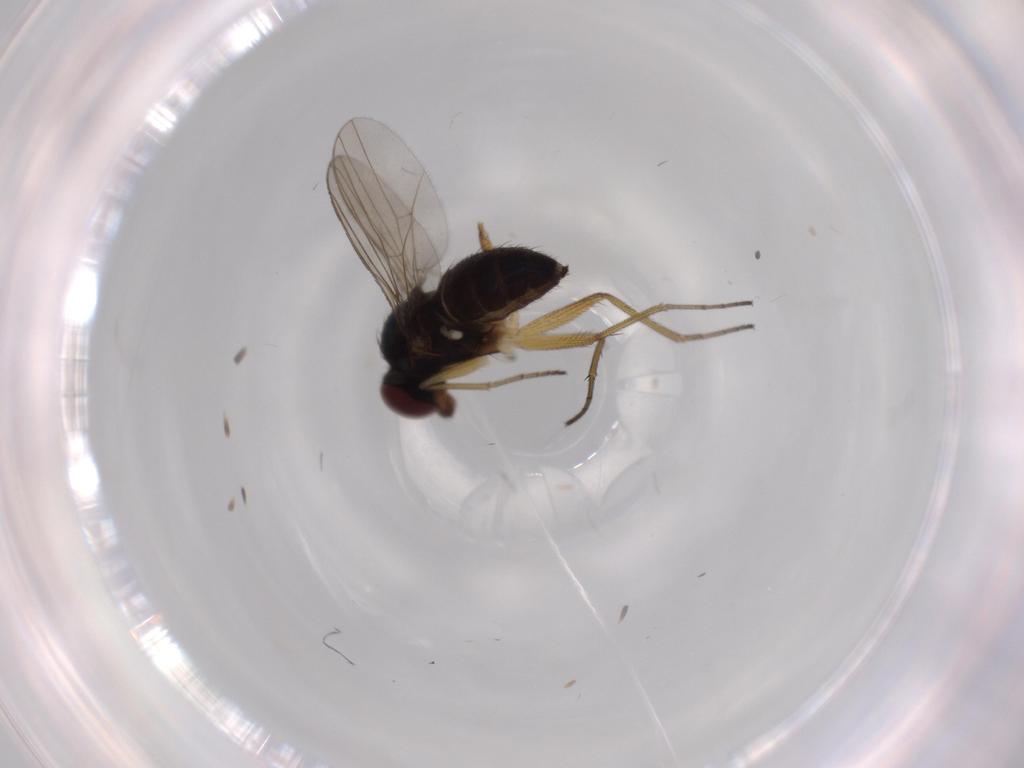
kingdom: Animalia
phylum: Arthropoda
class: Insecta
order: Diptera
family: Dolichopodidae
